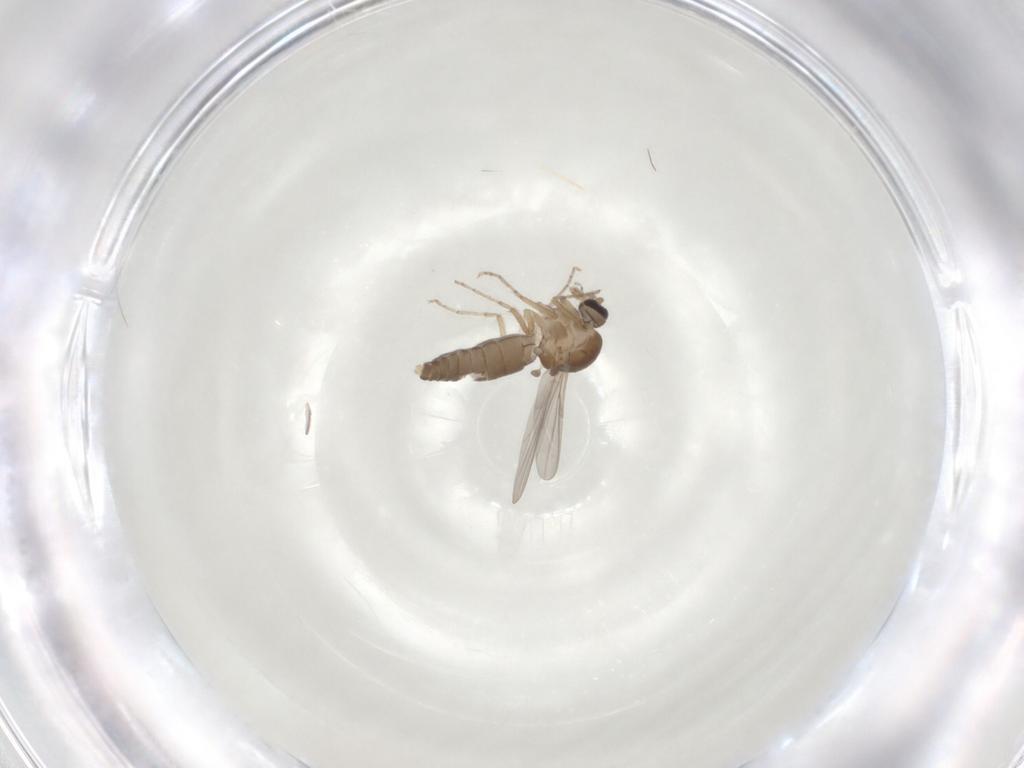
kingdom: Animalia
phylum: Arthropoda
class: Insecta
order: Diptera
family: Ceratopogonidae
